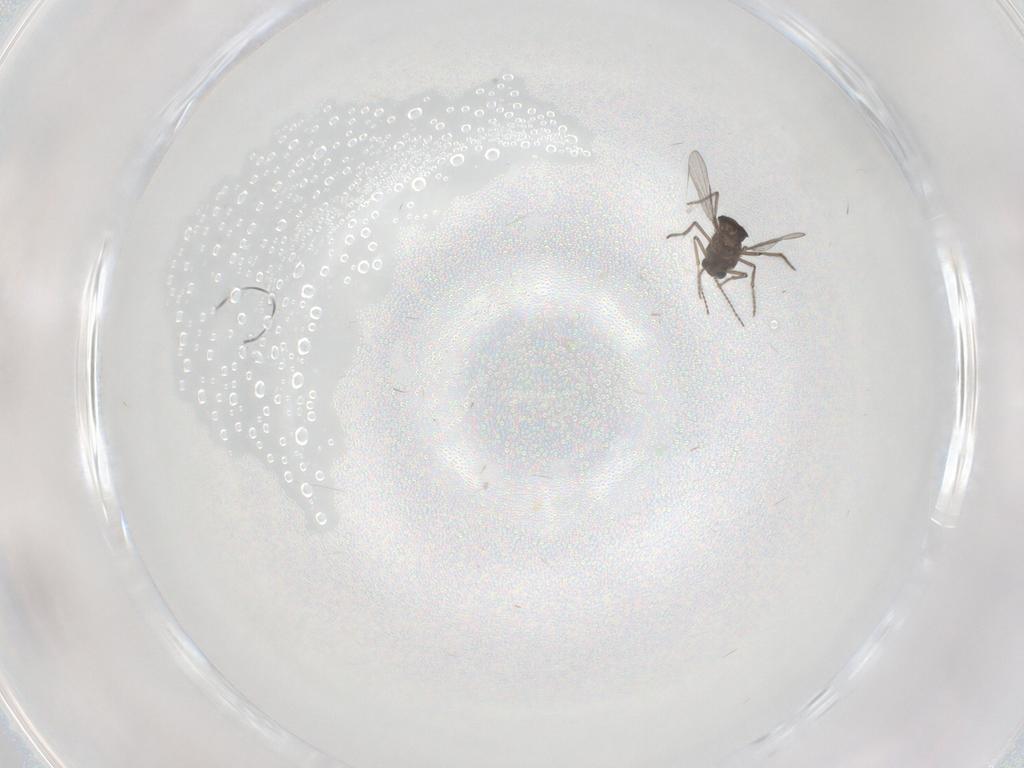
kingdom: Animalia
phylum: Arthropoda
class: Insecta
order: Diptera
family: Ceratopogonidae
